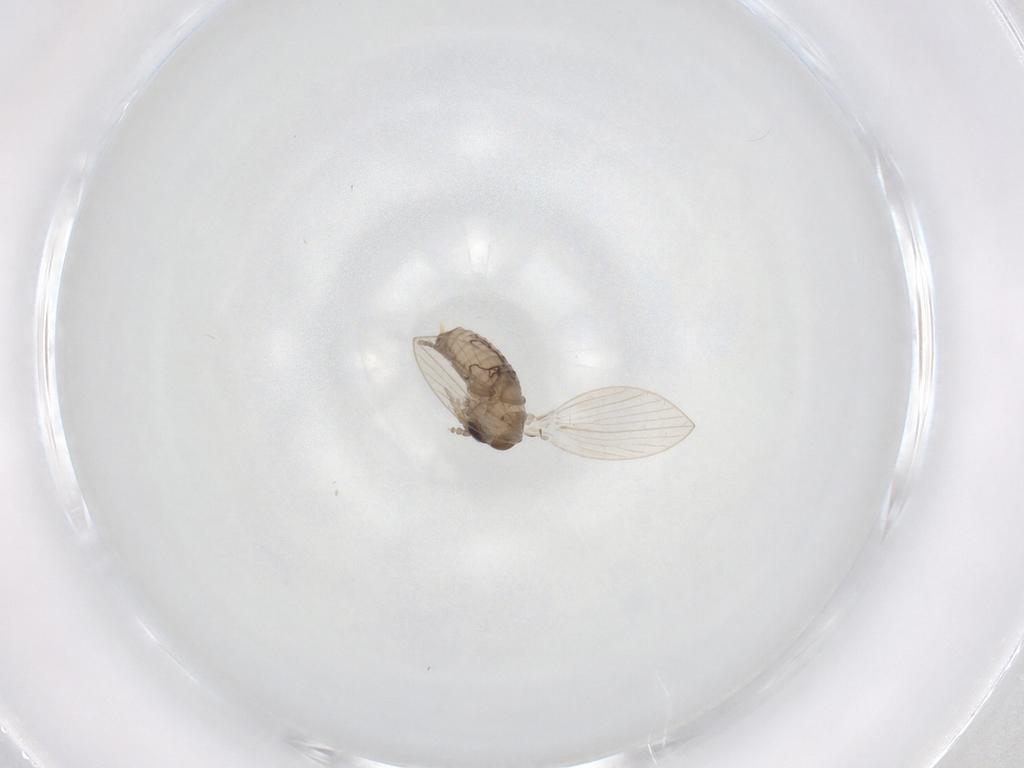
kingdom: Animalia
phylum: Arthropoda
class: Insecta
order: Diptera
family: Psychodidae
